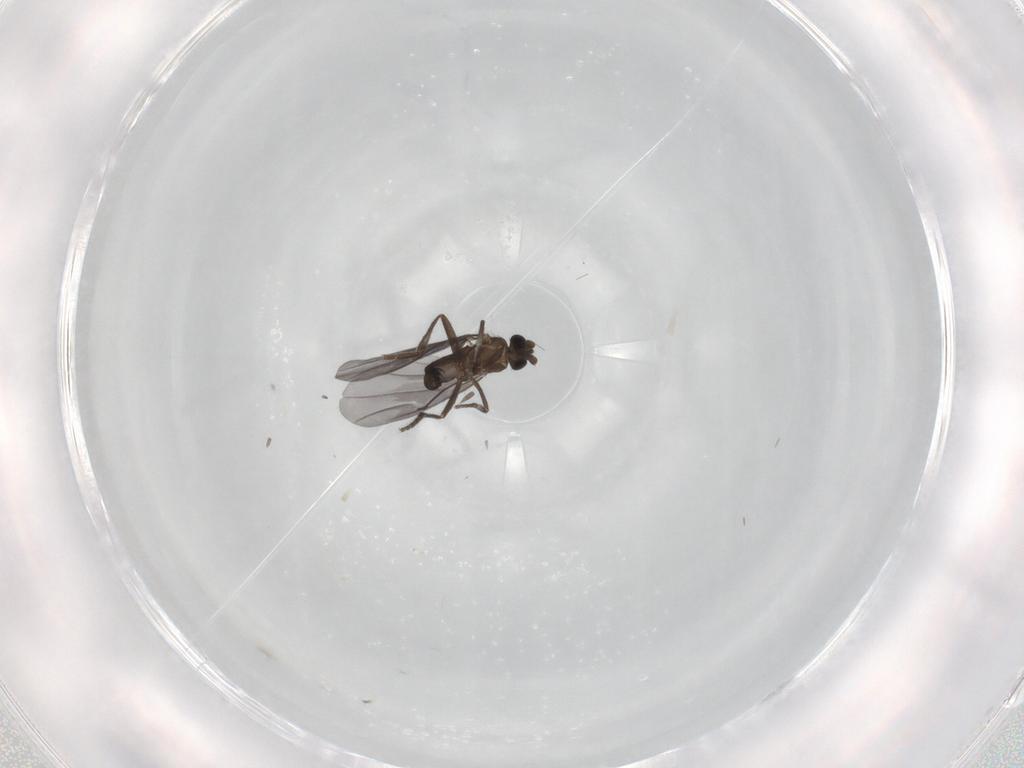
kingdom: Animalia
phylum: Arthropoda
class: Insecta
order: Diptera
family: Phoridae
